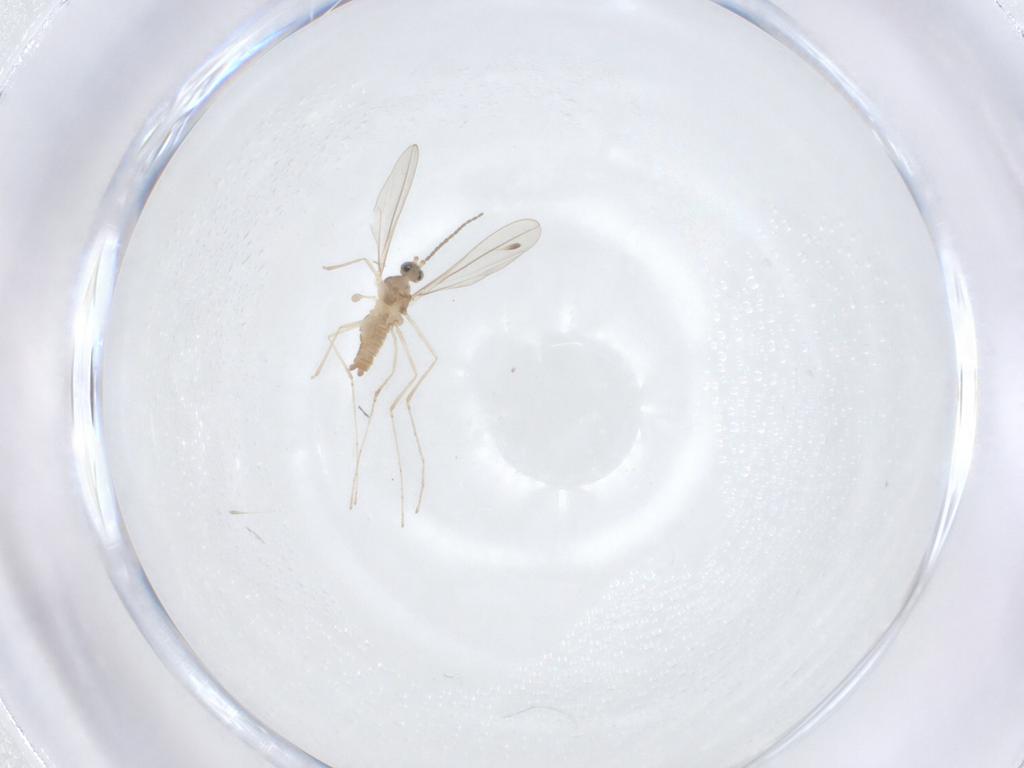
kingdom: Animalia
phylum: Arthropoda
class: Insecta
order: Diptera
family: Cecidomyiidae
